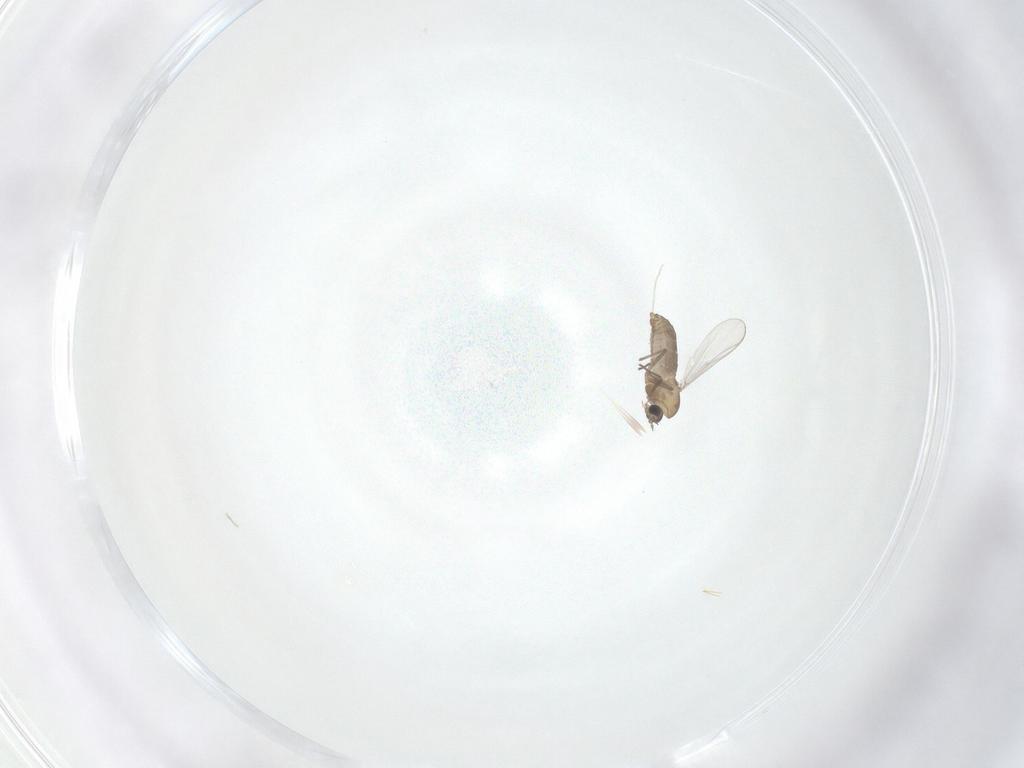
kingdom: Animalia
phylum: Arthropoda
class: Insecta
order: Diptera
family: Chironomidae
